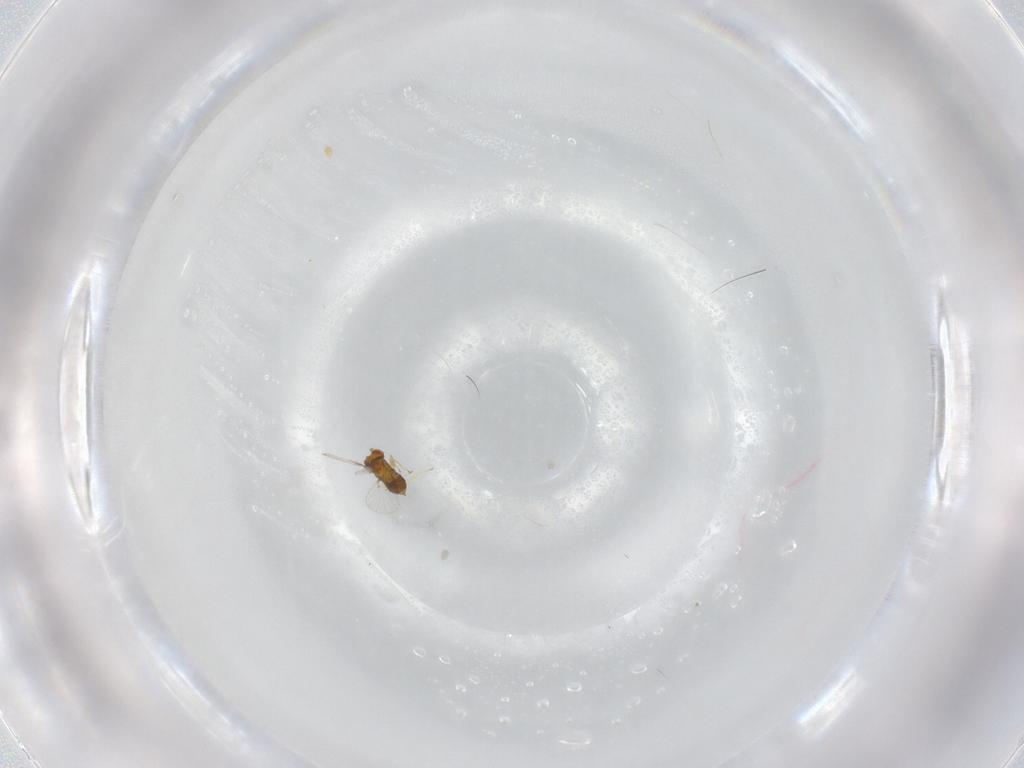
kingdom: Animalia
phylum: Arthropoda
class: Insecta
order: Hymenoptera
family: Trichogrammatidae
